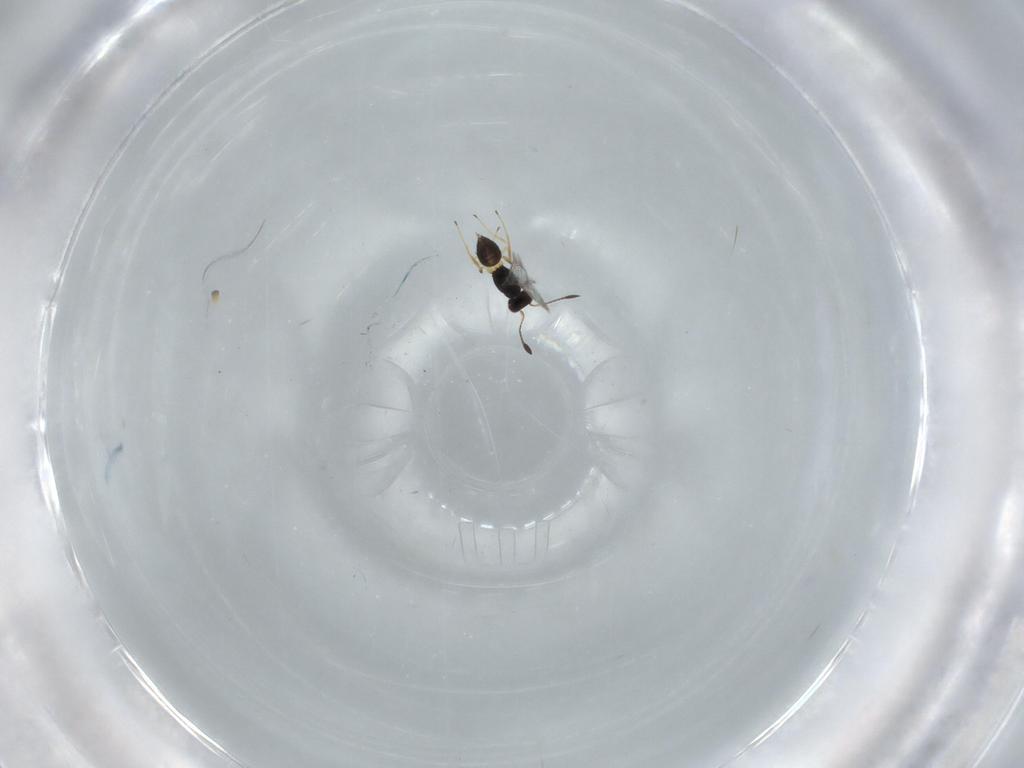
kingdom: Animalia
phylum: Arthropoda
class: Insecta
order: Hymenoptera
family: Mymaridae
